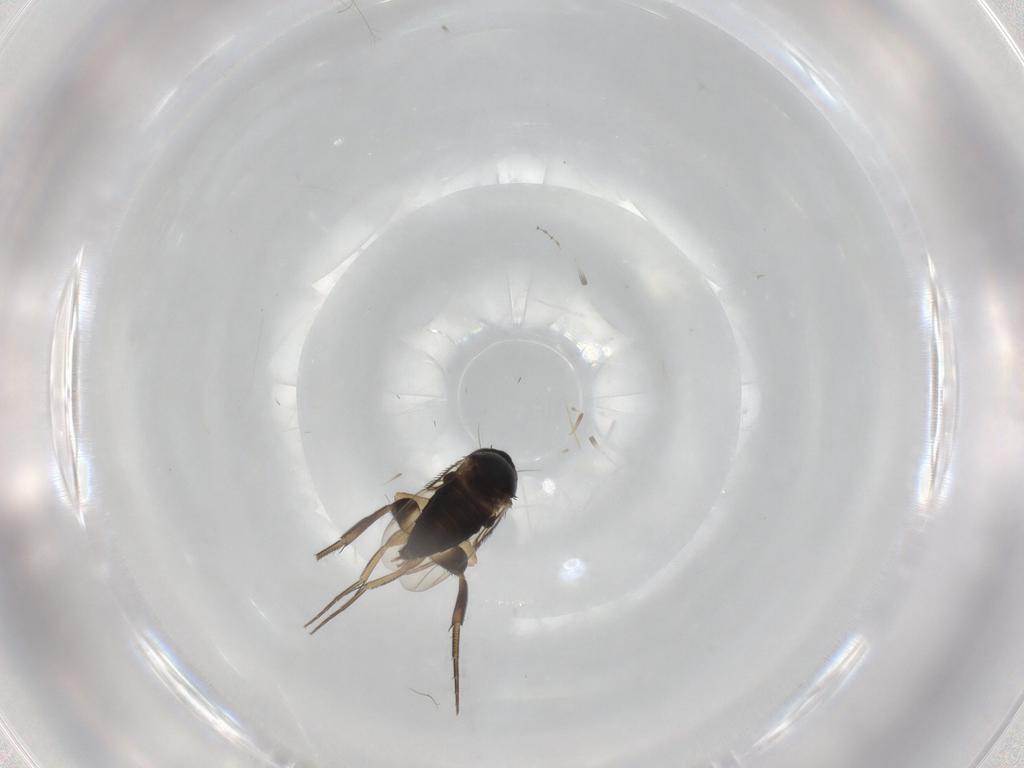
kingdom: Animalia
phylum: Arthropoda
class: Insecta
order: Diptera
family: Phoridae
